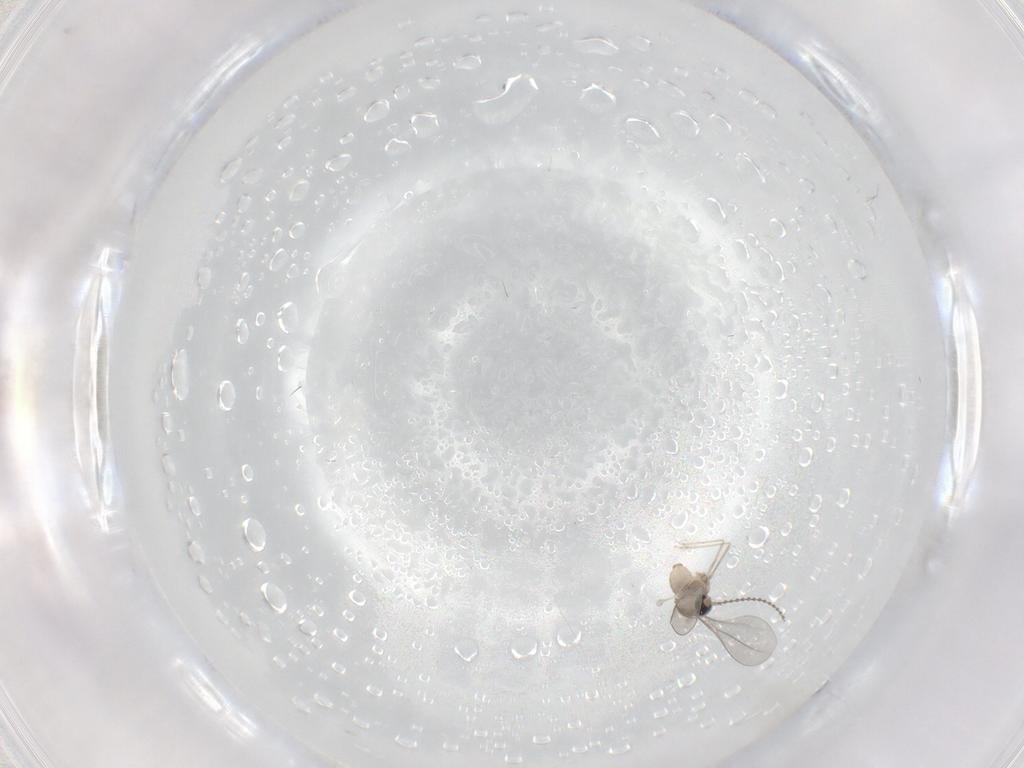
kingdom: Animalia
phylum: Arthropoda
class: Insecta
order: Diptera
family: Cecidomyiidae
